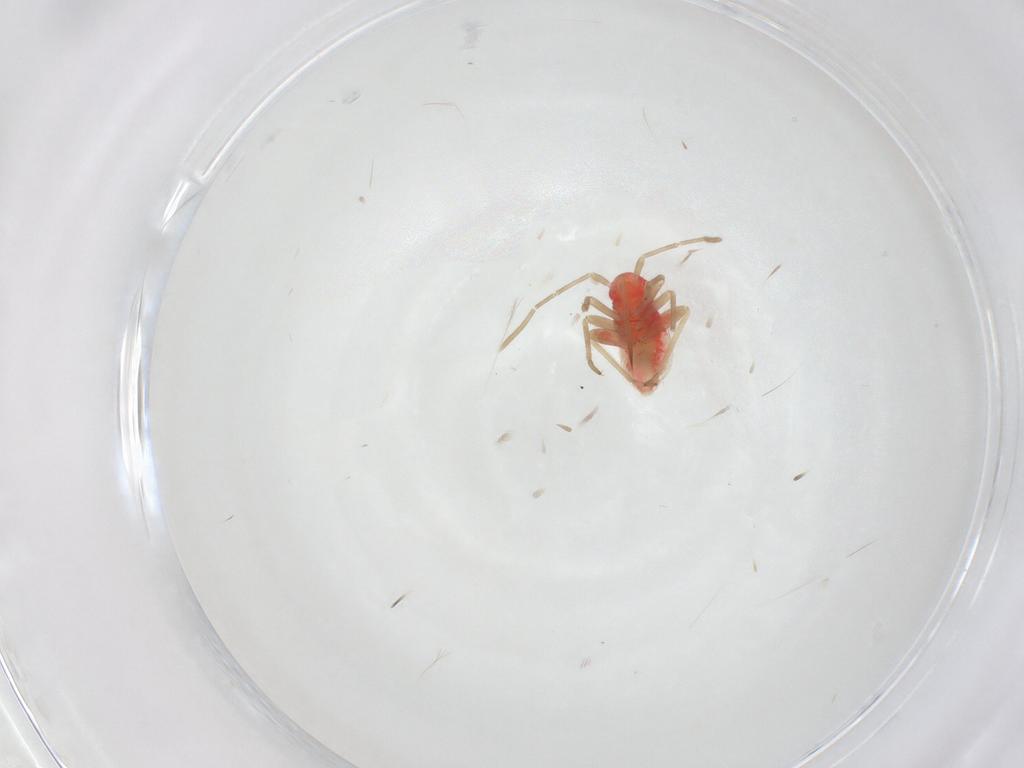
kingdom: Animalia
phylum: Arthropoda
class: Insecta
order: Hemiptera
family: Miridae
